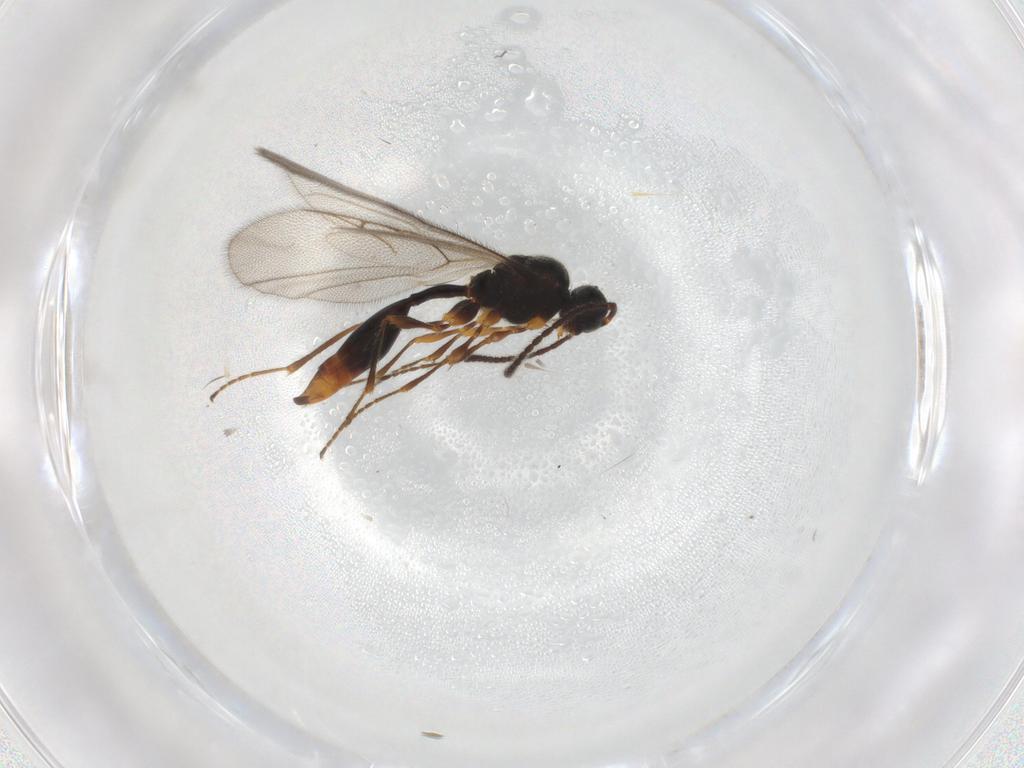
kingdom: Animalia
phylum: Arthropoda
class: Insecta
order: Hymenoptera
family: Diapriidae
